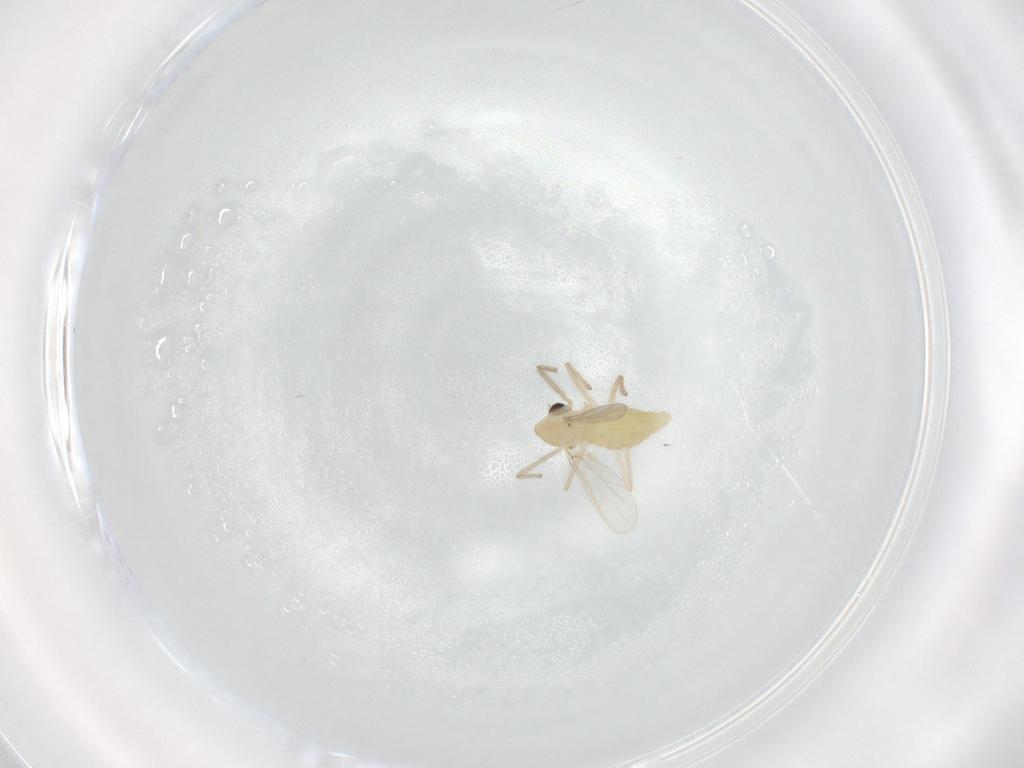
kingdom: Animalia
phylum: Arthropoda
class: Insecta
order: Diptera
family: Chironomidae
